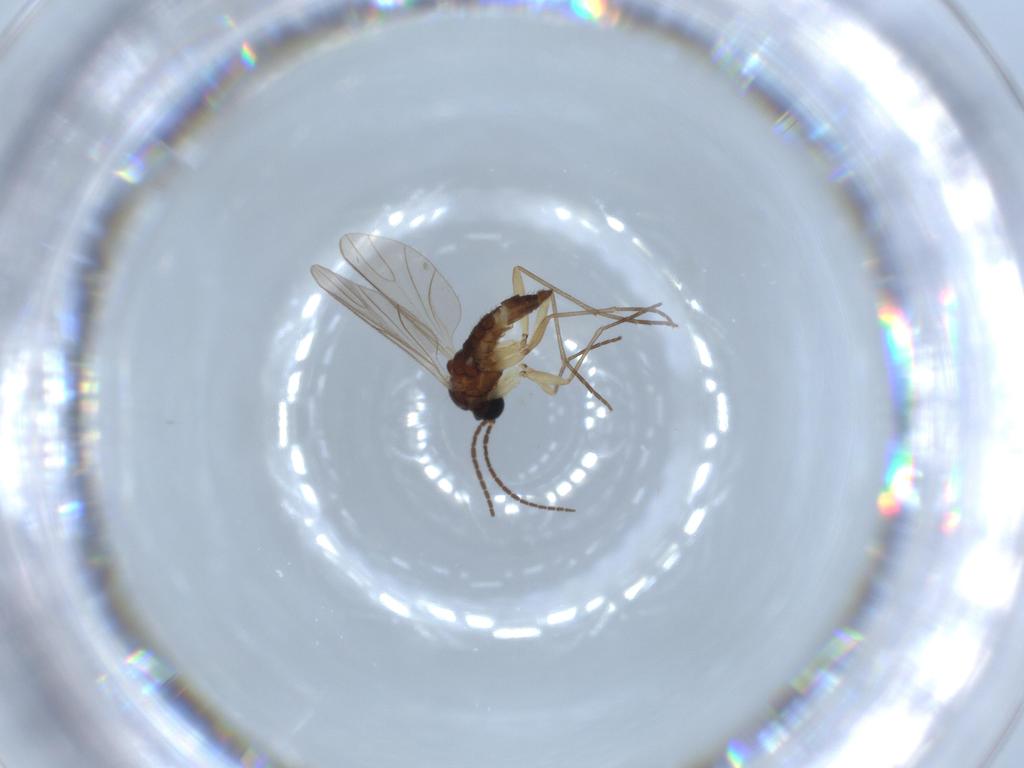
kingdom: Animalia
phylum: Arthropoda
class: Insecta
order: Diptera
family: Sciaridae
